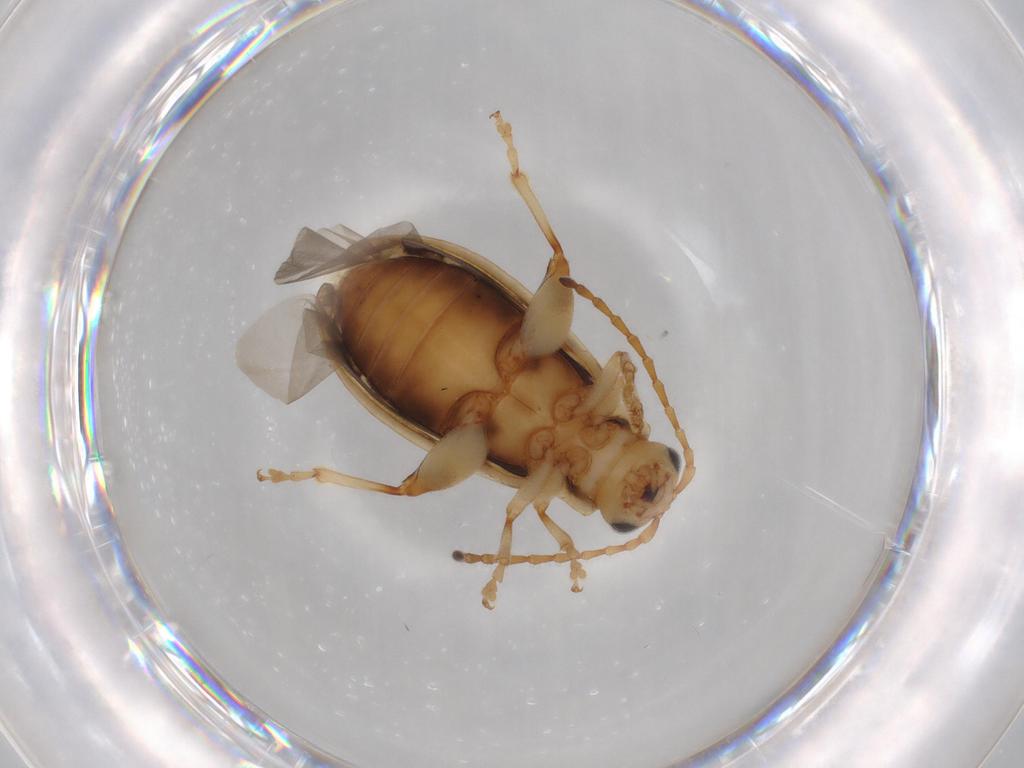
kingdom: Animalia
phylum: Arthropoda
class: Insecta
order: Coleoptera
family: Chrysomelidae
